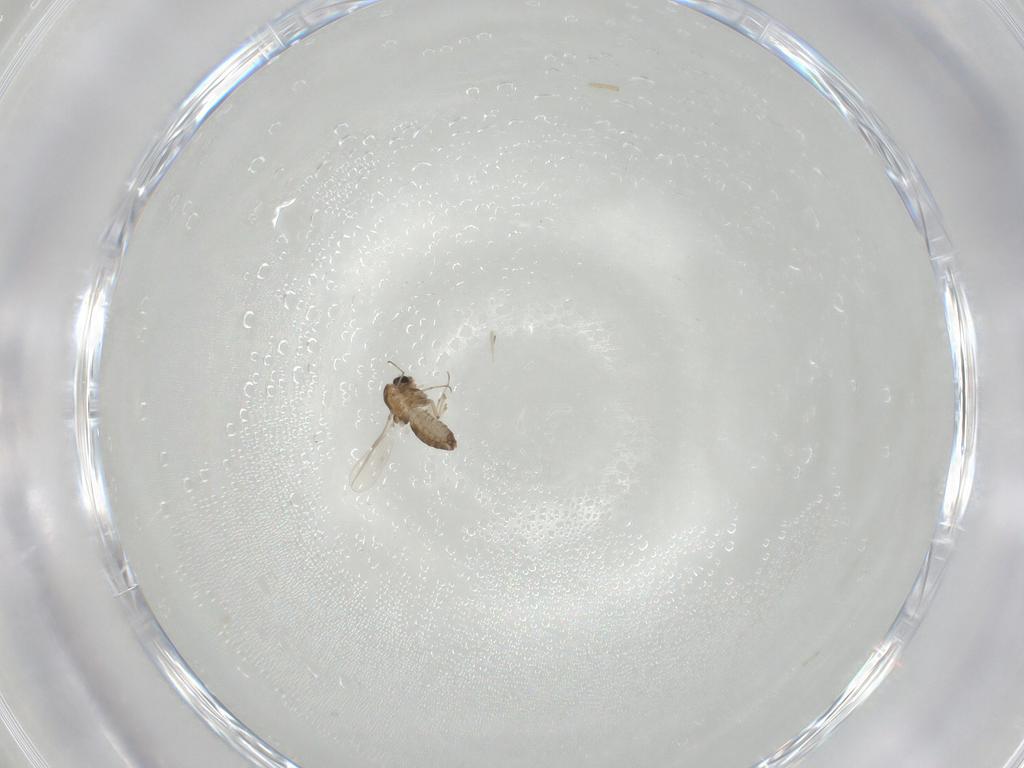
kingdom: Animalia
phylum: Arthropoda
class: Insecta
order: Diptera
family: Chironomidae
